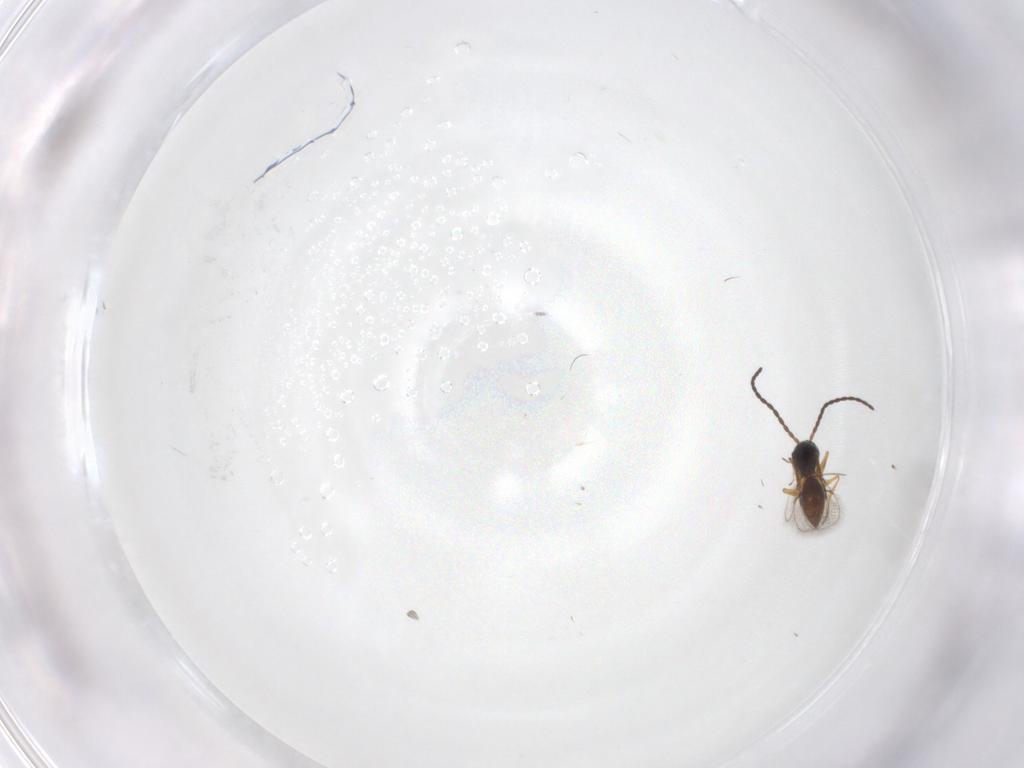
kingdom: Animalia
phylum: Arthropoda
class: Insecta
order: Hymenoptera
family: Figitidae
